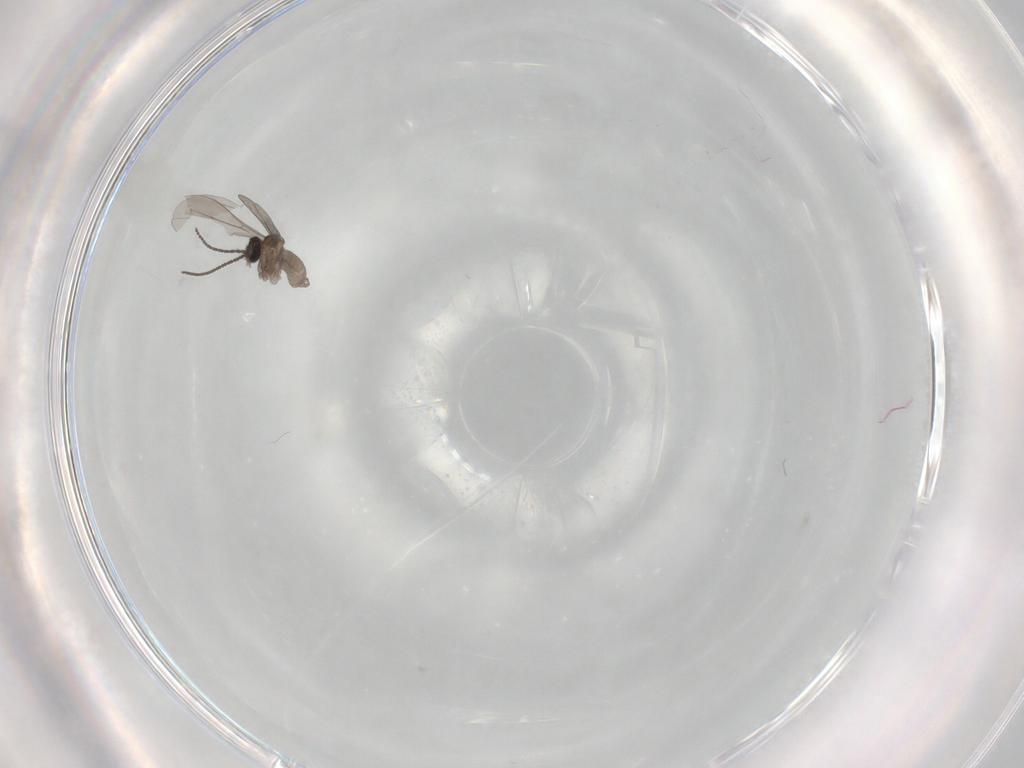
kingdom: Animalia
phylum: Arthropoda
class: Insecta
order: Diptera
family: Cecidomyiidae
